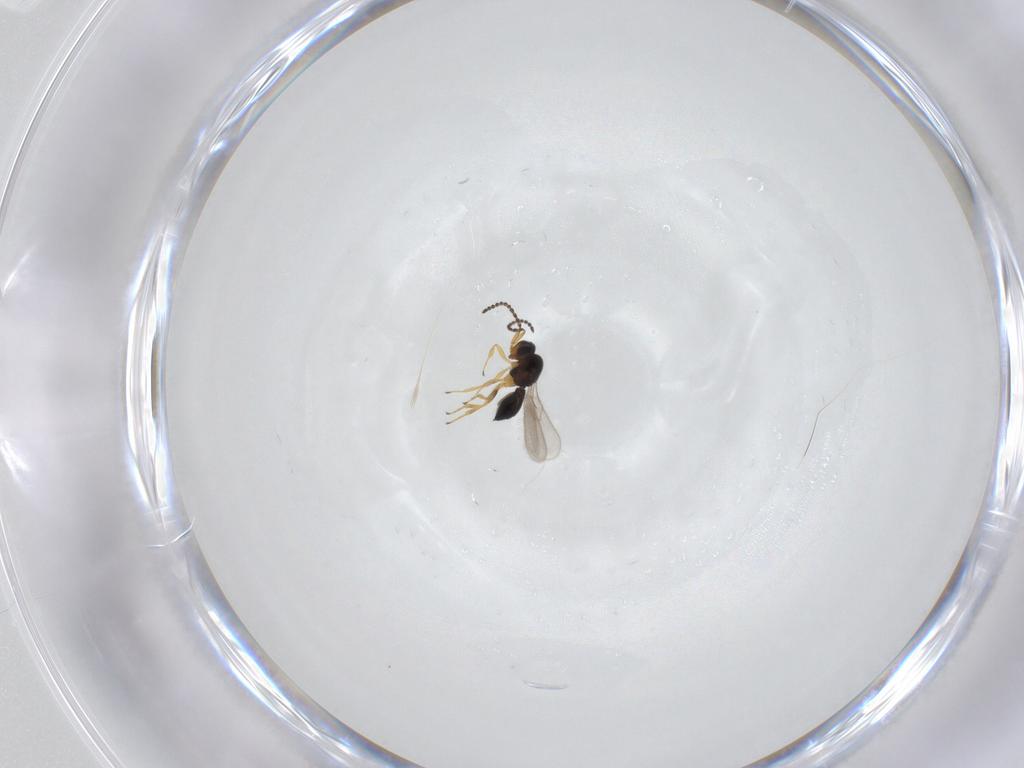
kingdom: Animalia
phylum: Arthropoda
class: Insecta
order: Hymenoptera
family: Scelionidae
